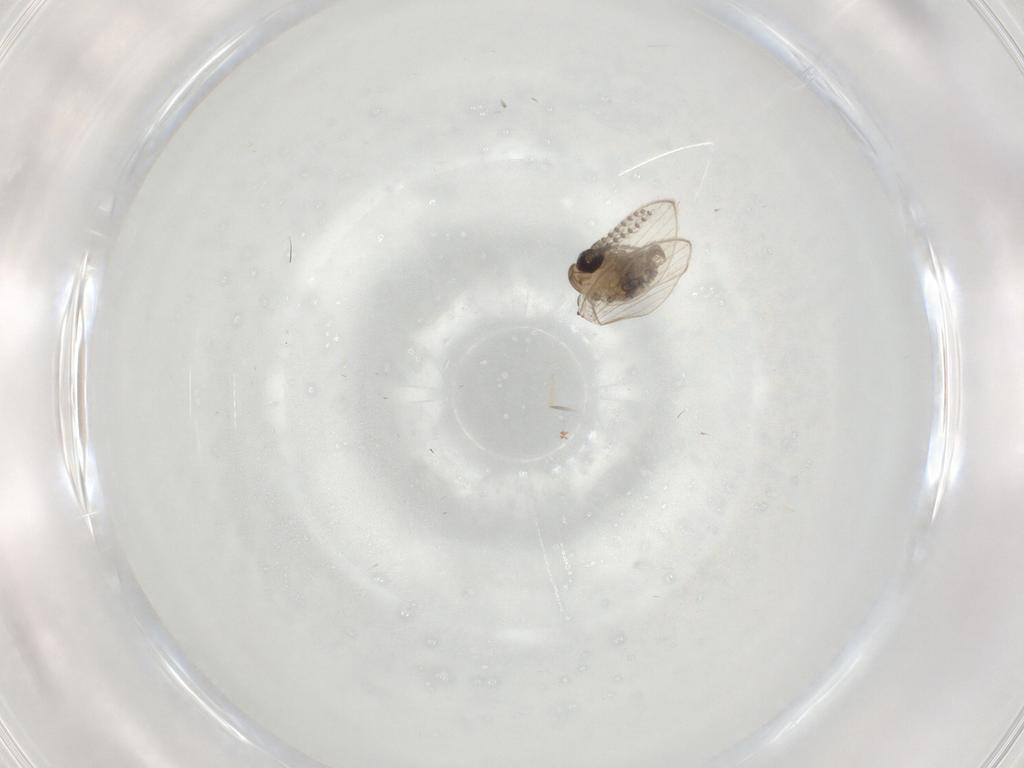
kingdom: Animalia
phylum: Arthropoda
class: Insecta
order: Diptera
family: Psychodidae
